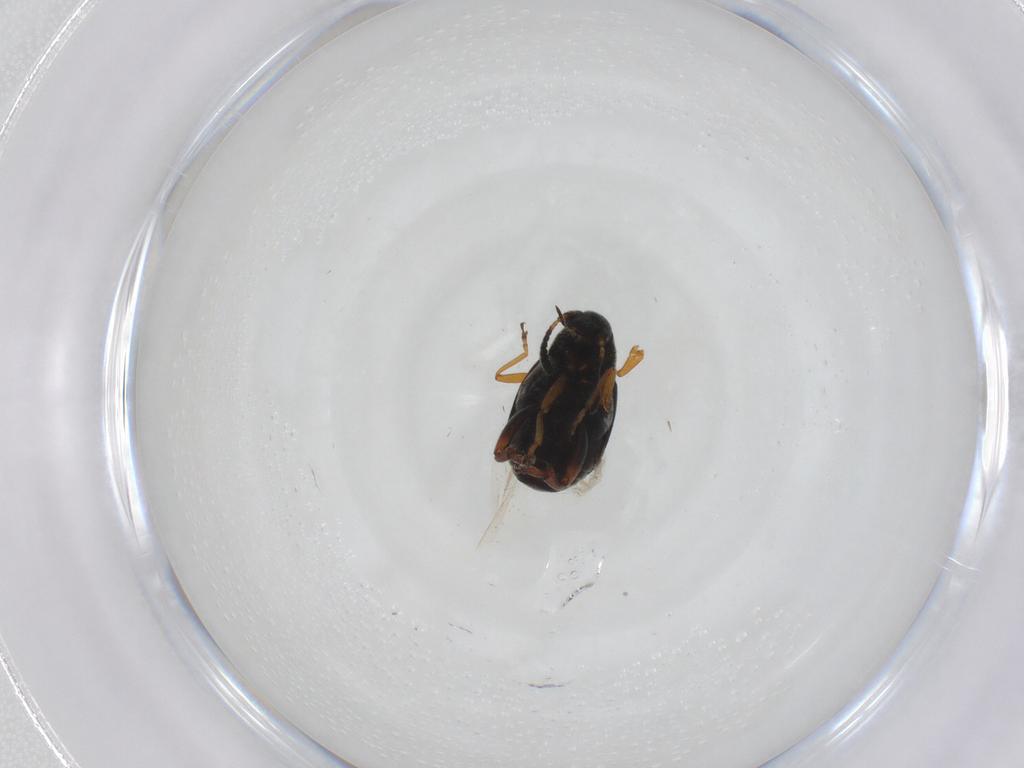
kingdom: Animalia
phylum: Arthropoda
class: Insecta
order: Coleoptera
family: Chrysomelidae
